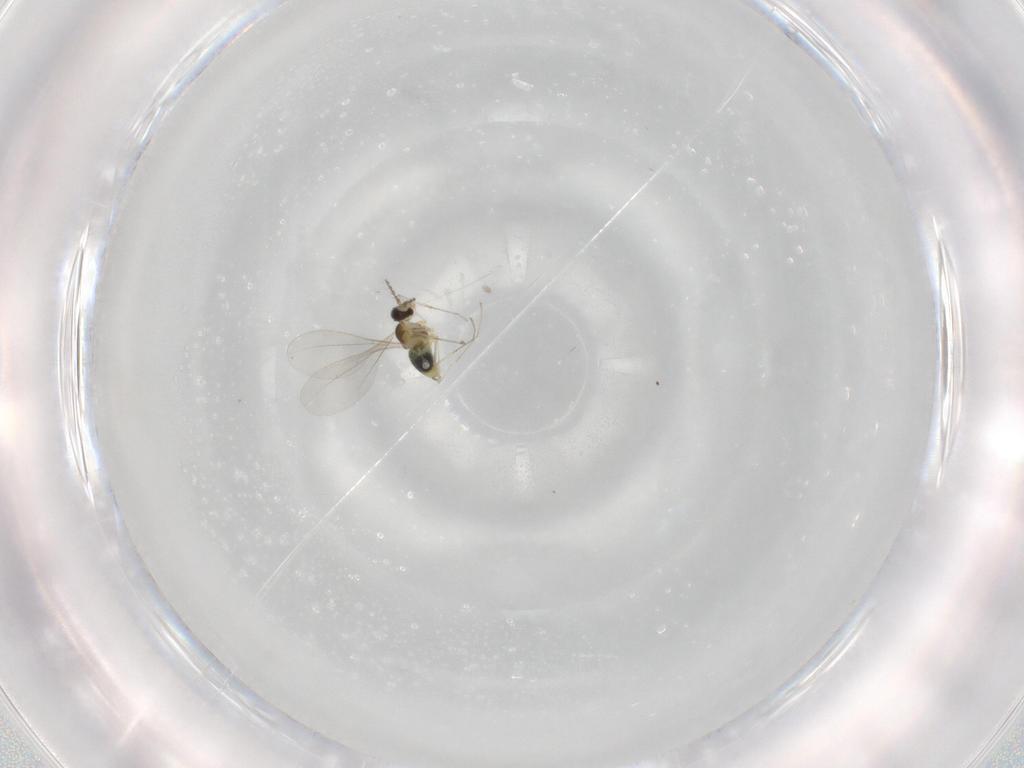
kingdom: Animalia
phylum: Arthropoda
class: Insecta
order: Diptera
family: Cecidomyiidae
